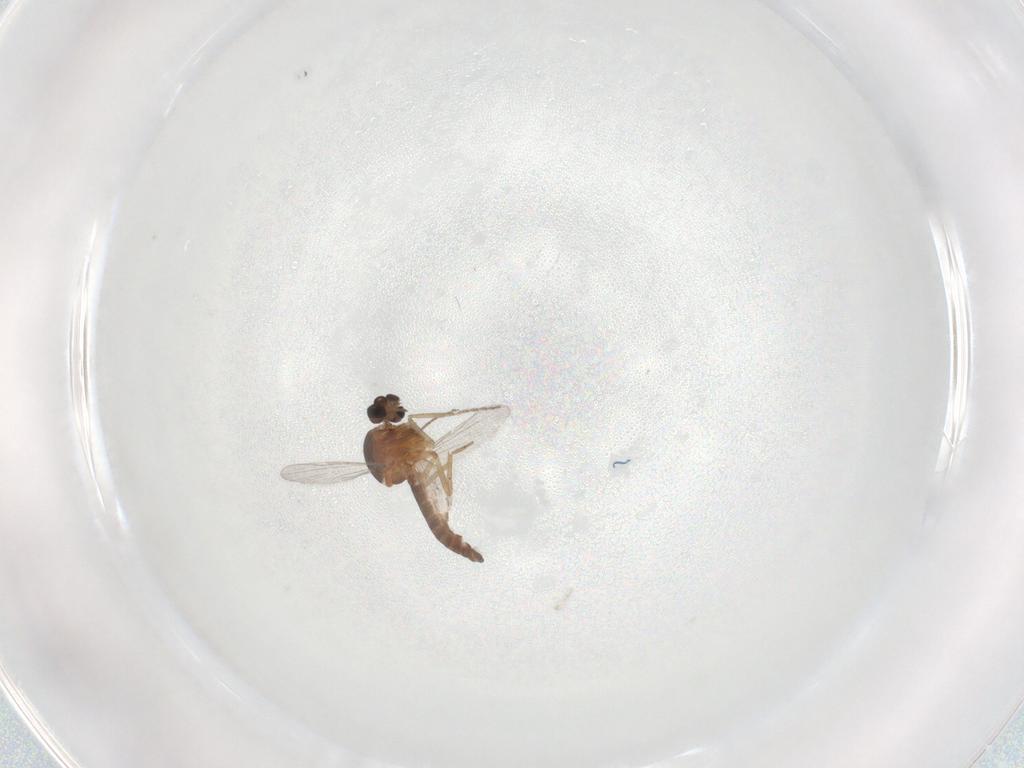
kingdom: Animalia
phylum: Arthropoda
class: Insecta
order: Diptera
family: Ceratopogonidae
